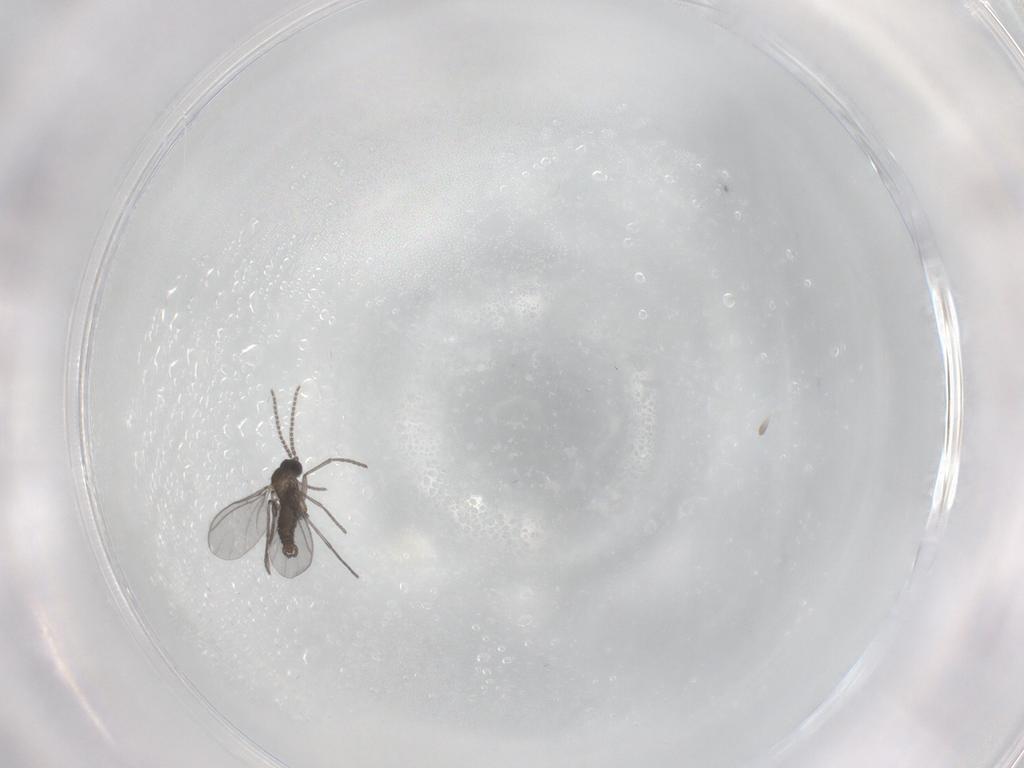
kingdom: Animalia
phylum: Arthropoda
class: Insecta
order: Diptera
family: Sciaridae
